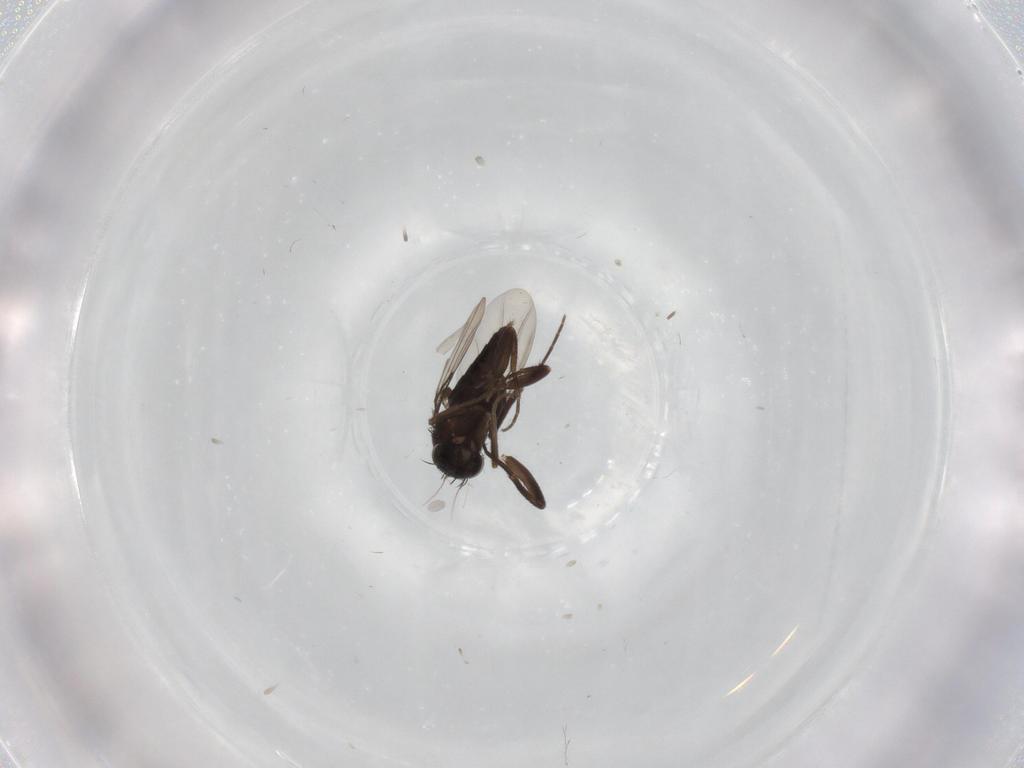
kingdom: Animalia
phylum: Arthropoda
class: Insecta
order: Diptera
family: Phoridae
